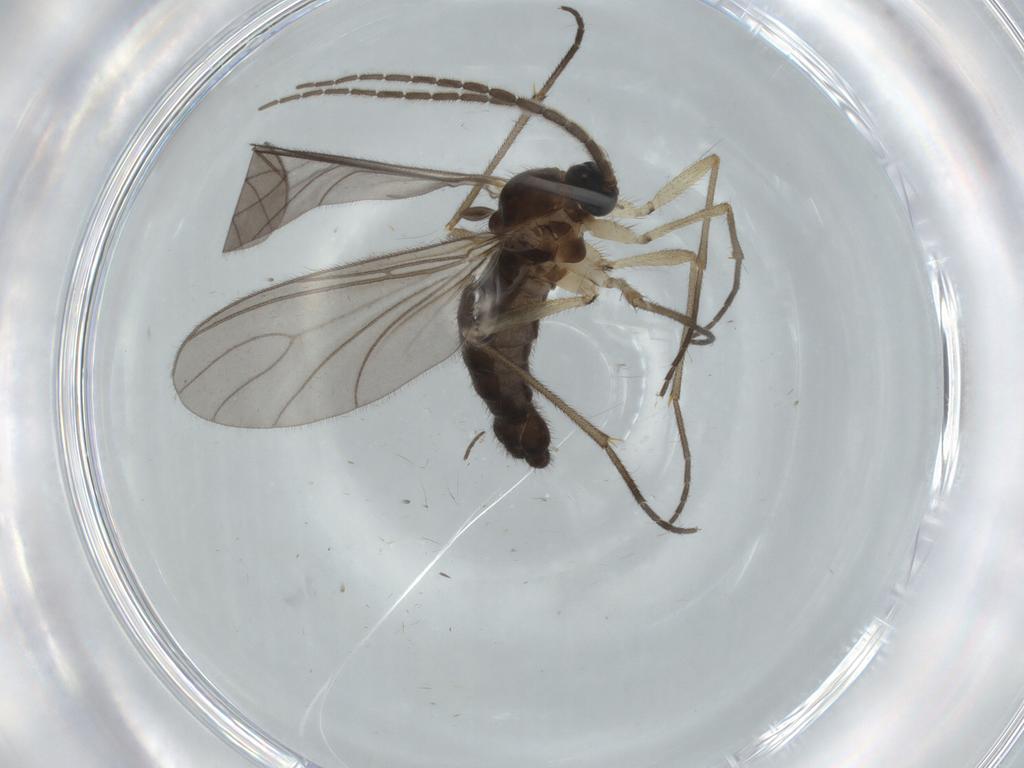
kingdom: Animalia
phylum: Arthropoda
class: Insecta
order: Diptera
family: Sciaridae
